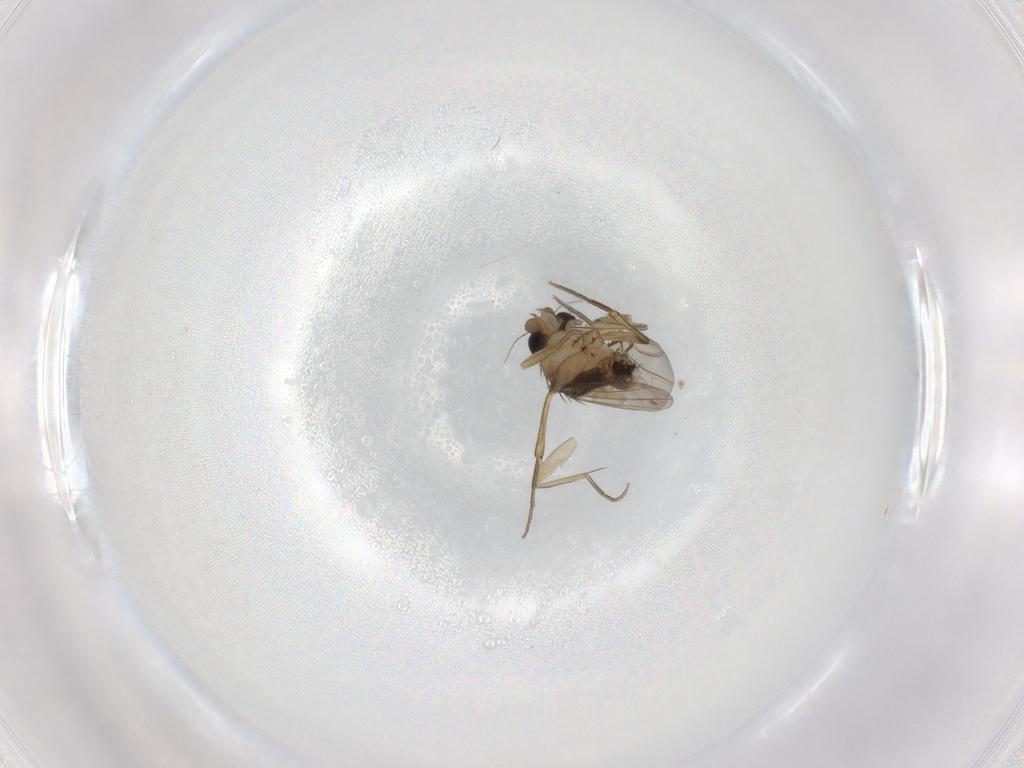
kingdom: Animalia
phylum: Arthropoda
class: Insecta
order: Diptera
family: Phoridae
